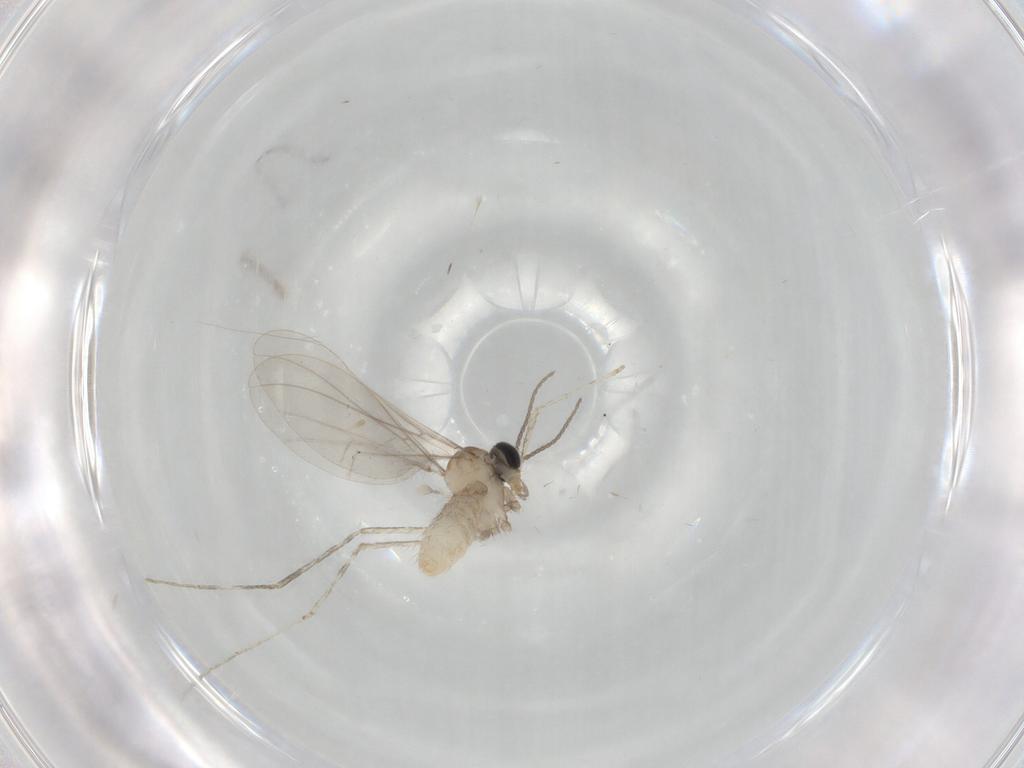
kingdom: Animalia
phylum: Arthropoda
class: Insecta
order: Diptera
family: Cecidomyiidae
